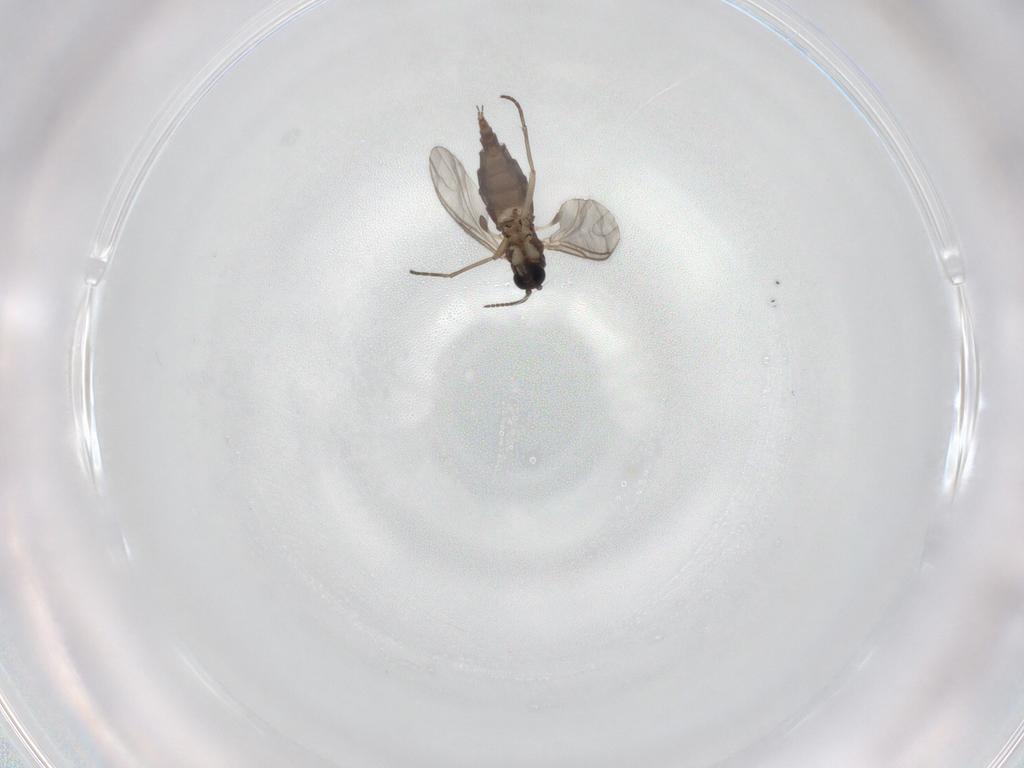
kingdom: Animalia
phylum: Arthropoda
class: Insecta
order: Diptera
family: Sciaridae
